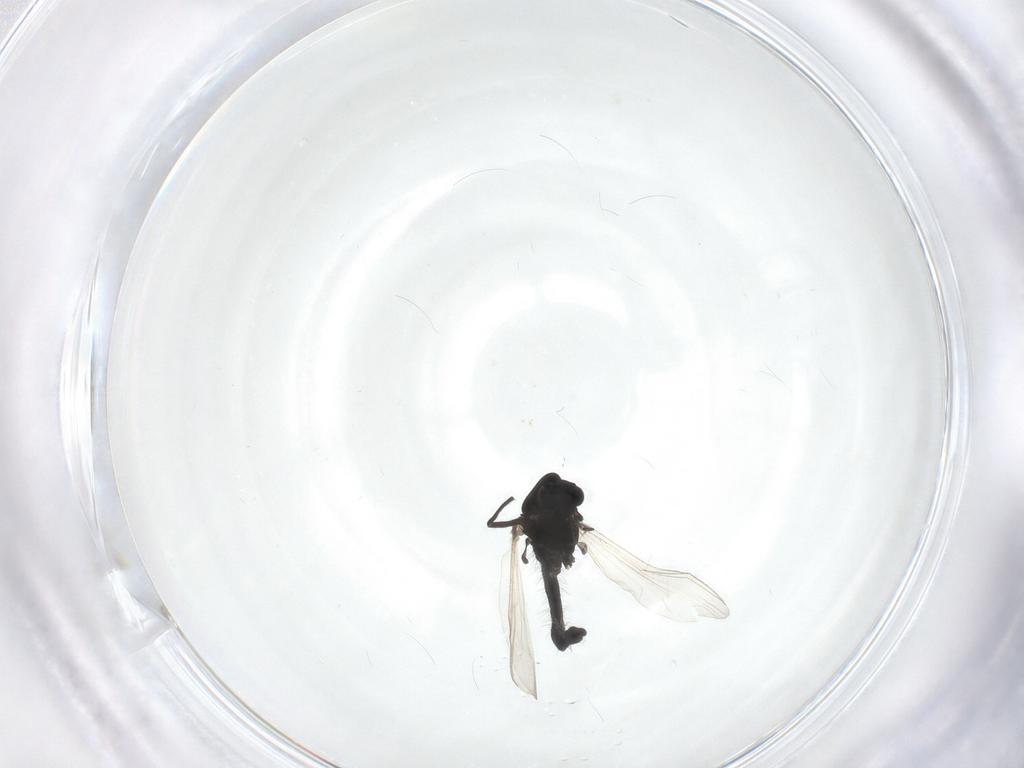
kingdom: Animalia
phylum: Arthropoda
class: Insecta
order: Diptera
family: Chironomidae
